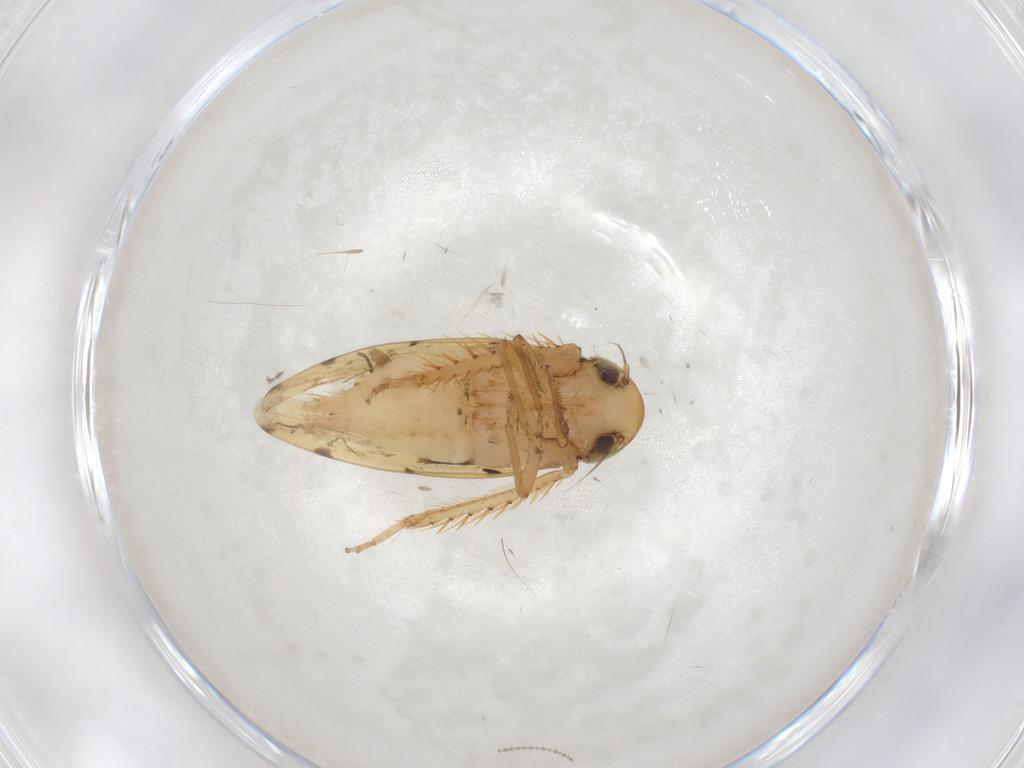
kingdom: Animalia
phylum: Arthropoda
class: Insecta
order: Hemiptera
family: Cicadellidae
